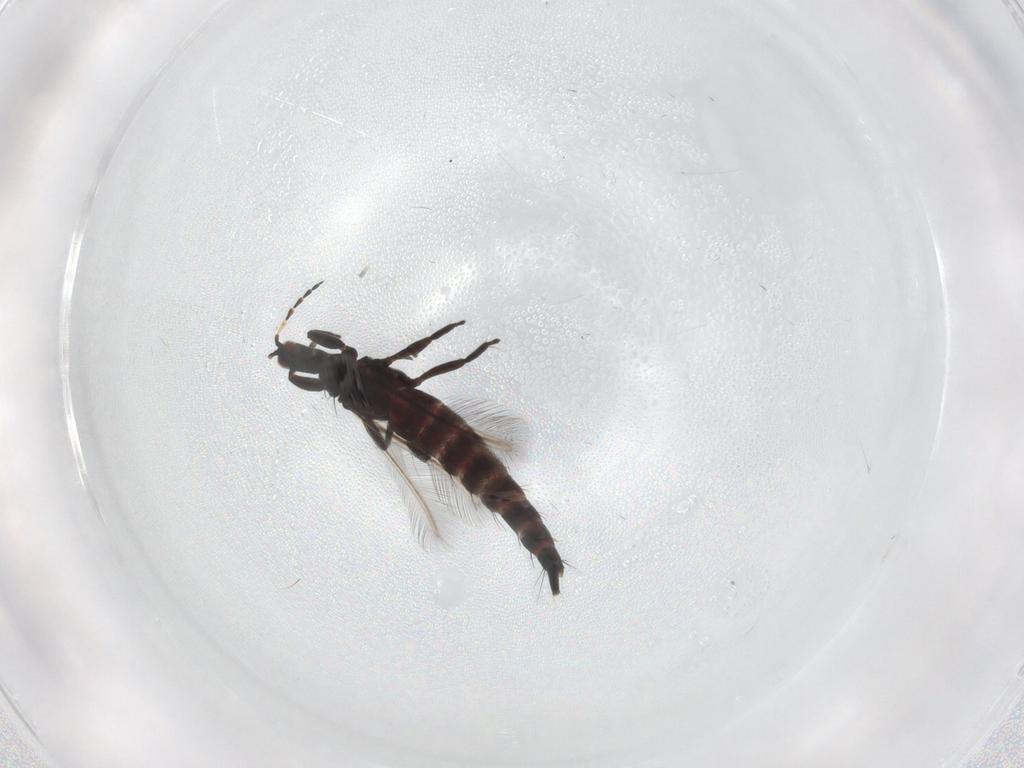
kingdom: Animalia
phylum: Arthropoda
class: Insecta
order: Thysanoptera
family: Phlaeothripidae
